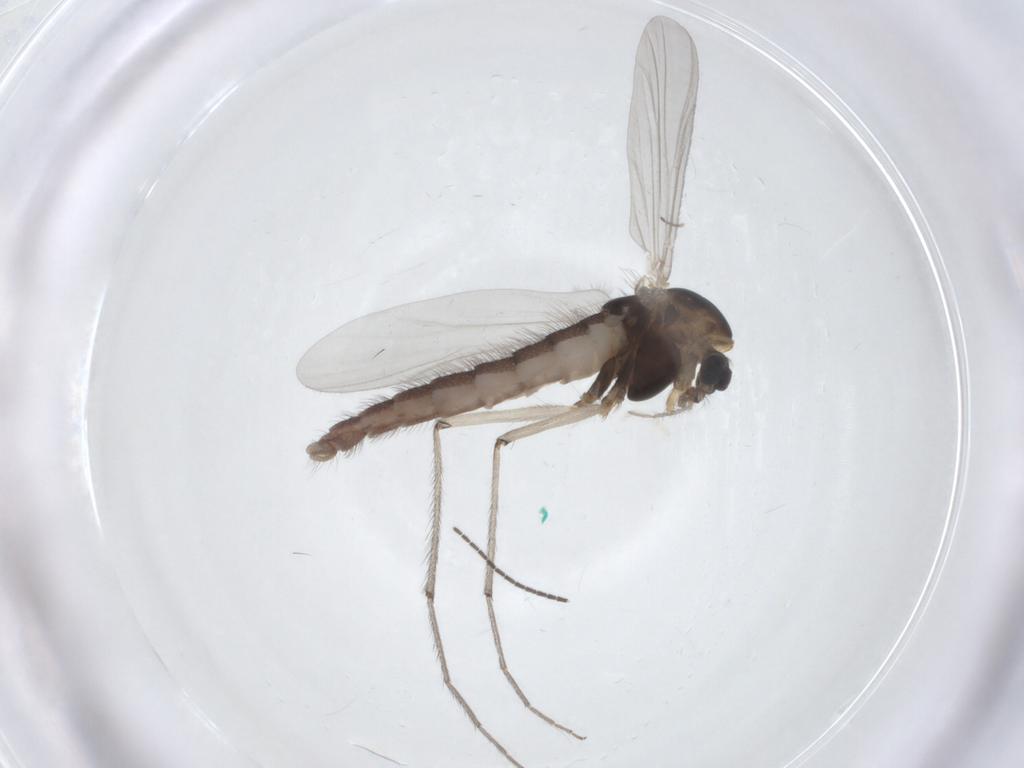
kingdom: Animalia
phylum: Arthropoda
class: Insecta
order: Diptera
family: Chironomidae
